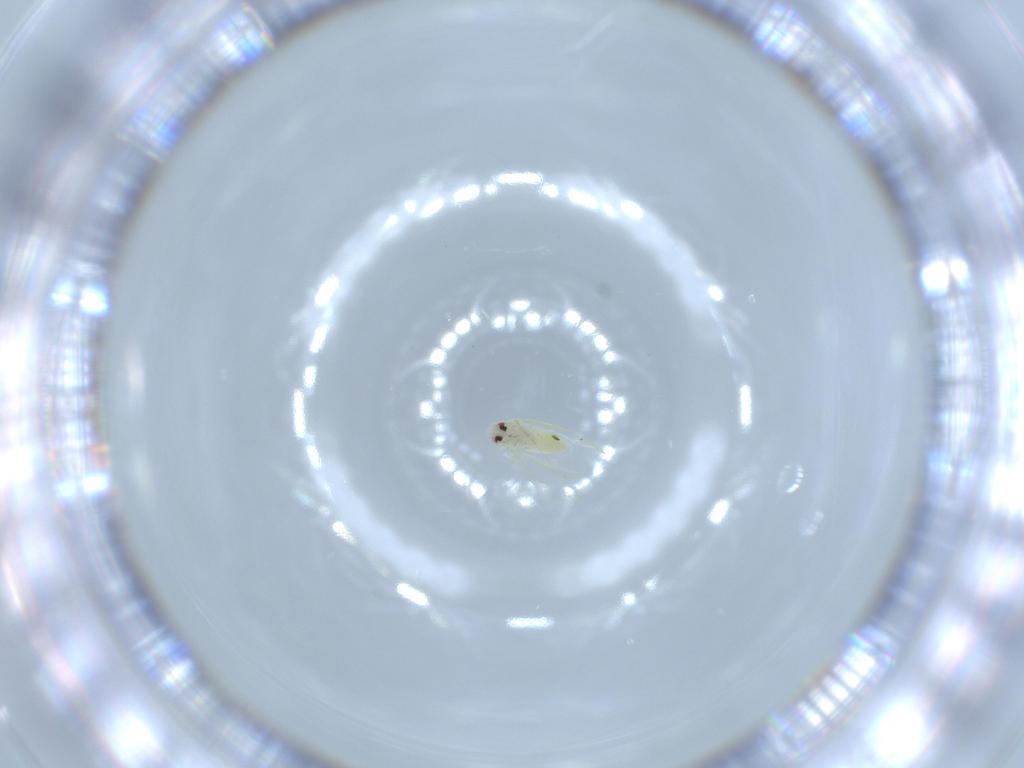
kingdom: Animalia
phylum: Arthropoda
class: Insecta
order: Hemiptera
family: Aleyrodidae
